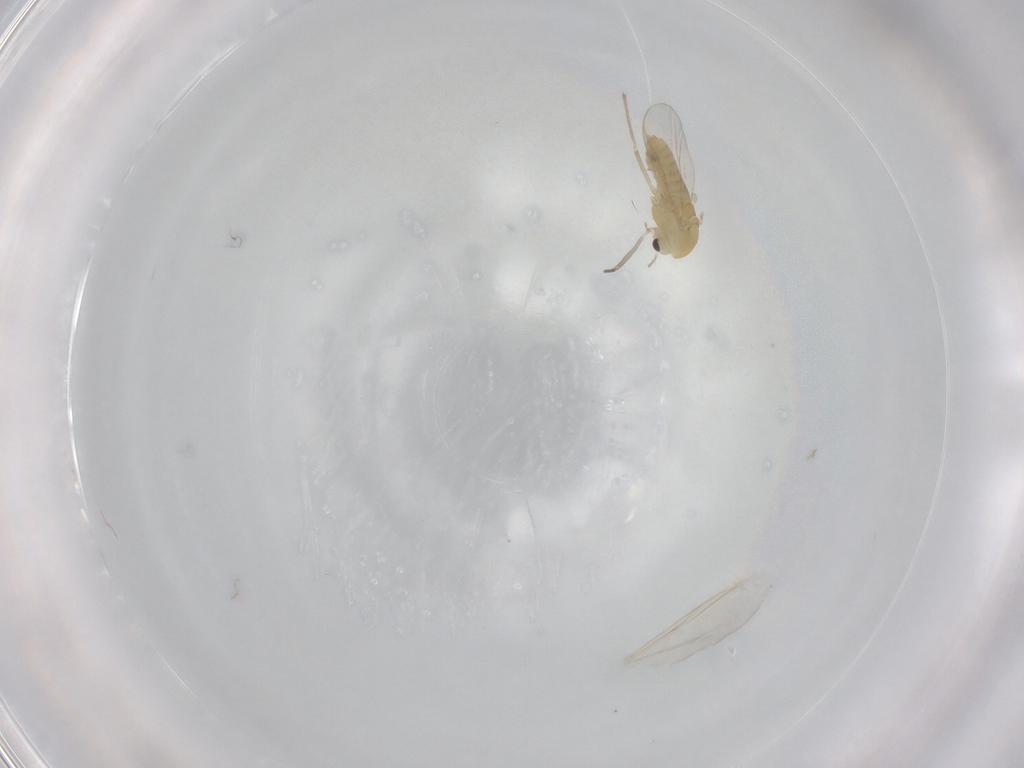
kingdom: Animalia
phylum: Arthropoda
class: Insecta
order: Diptera
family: Chironomidae
